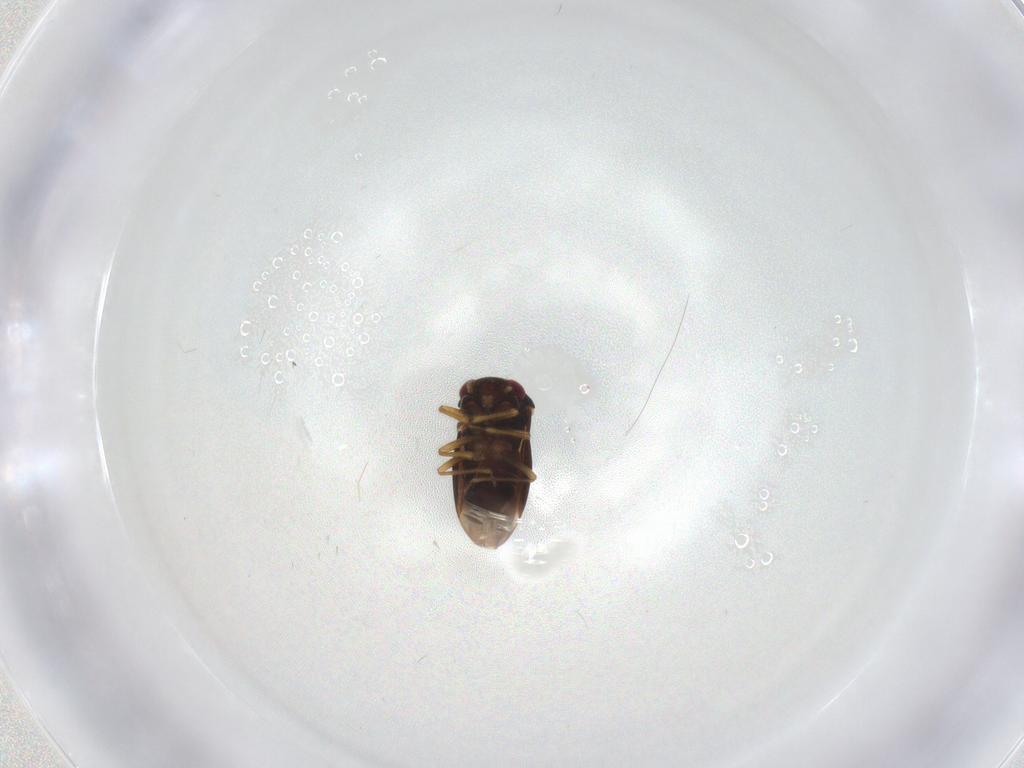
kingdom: Animalia
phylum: Arthropoda
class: Insecta
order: Hemiptera
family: Schizopteridae
